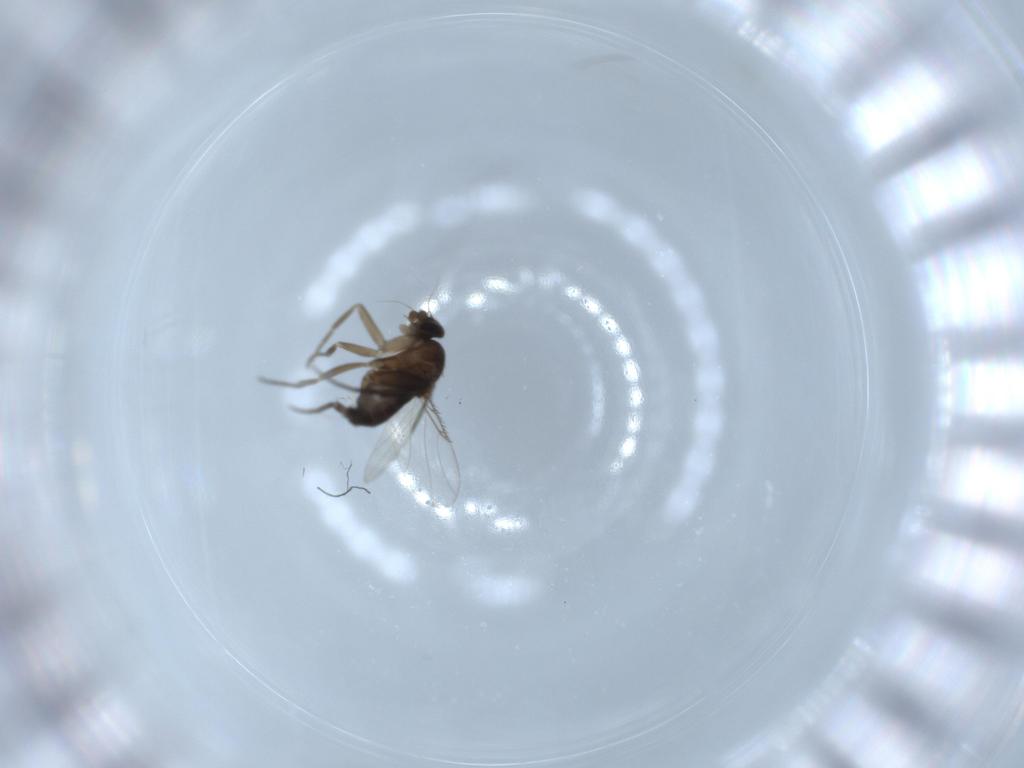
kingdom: Animalia
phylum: Arthropoda
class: Insecta
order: Diptera
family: Phoridae
